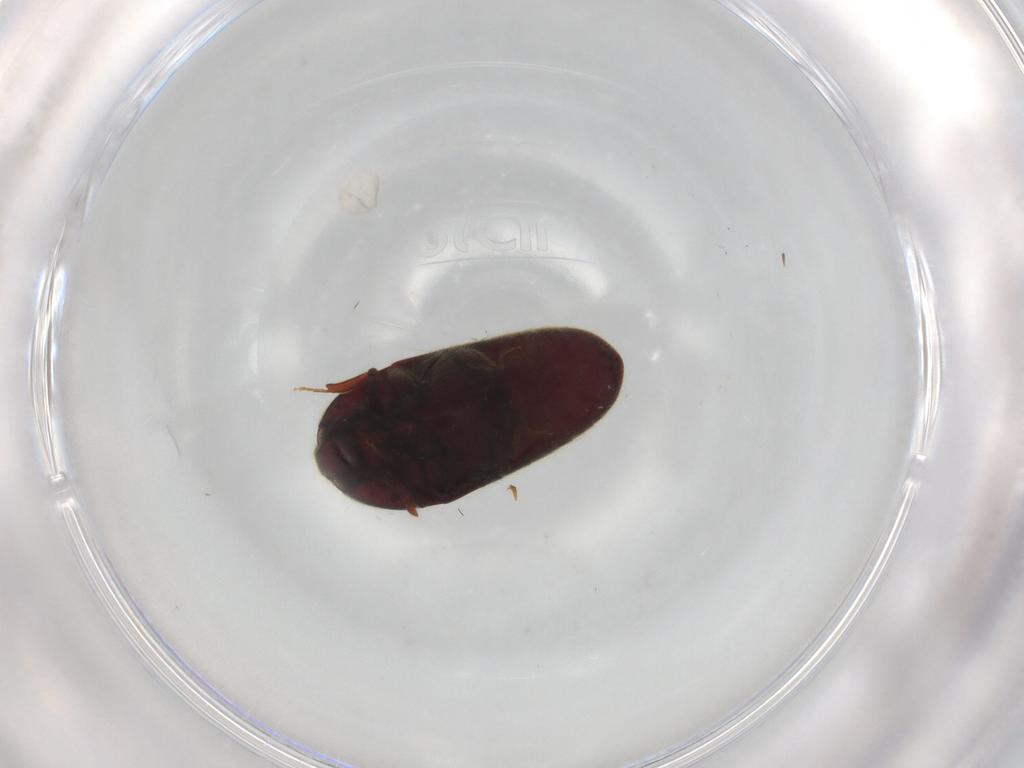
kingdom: Animalia
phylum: Arthropoda
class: Insecta
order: Coleoptera
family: Throscidae
